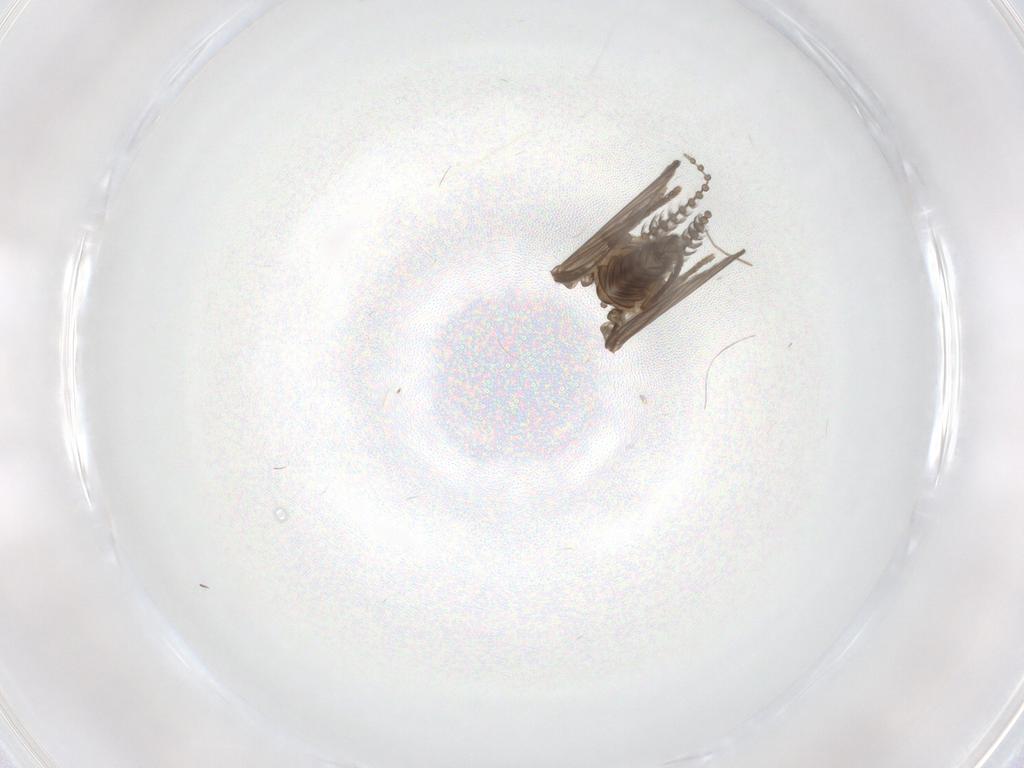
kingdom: Animalia
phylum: Arthropoda
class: Insecta
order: Diptera
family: Psychodidae
